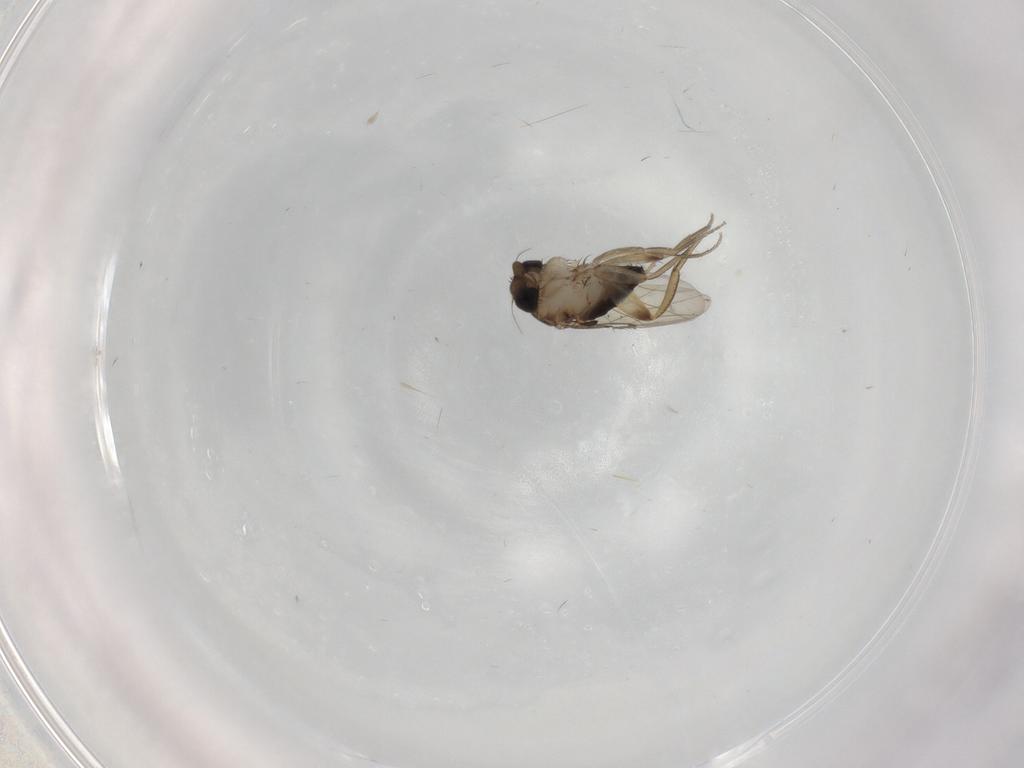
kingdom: Animalia
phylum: Arthropoda
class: Insecta
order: Diptera
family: Phoridae
